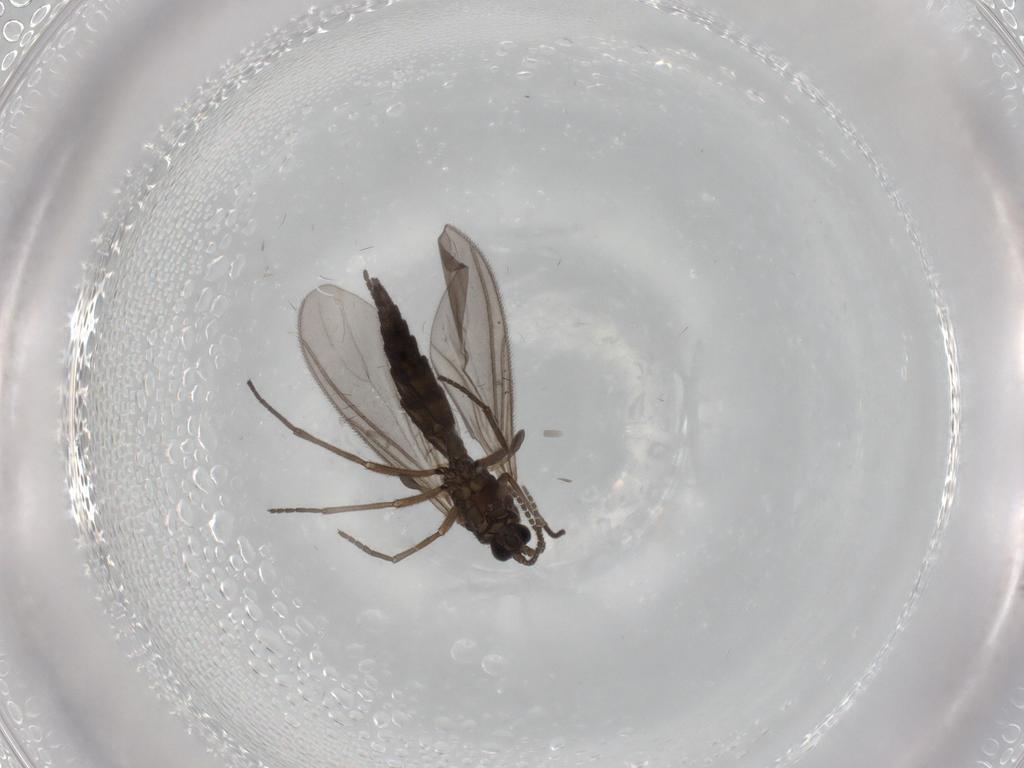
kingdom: Animalia
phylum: Arthropoda
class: Insecta
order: Diptera
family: Sciaridae
